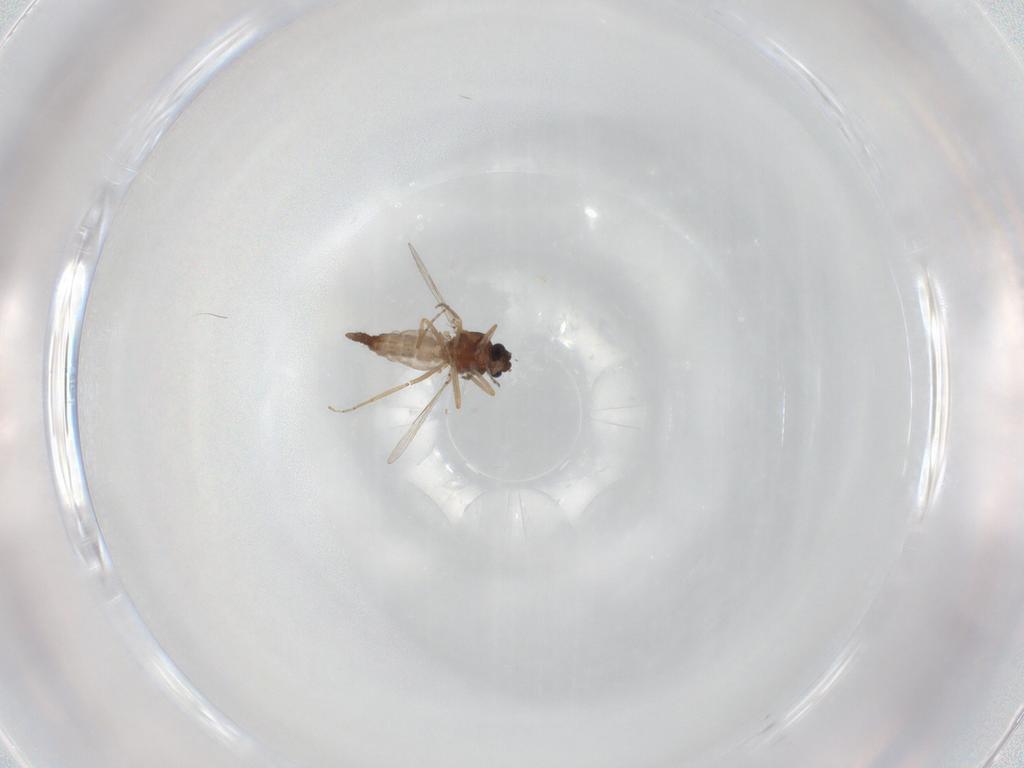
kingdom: Animalia
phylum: Arthropoda
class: Insecta
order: Diptera
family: Ceratopogonidae
